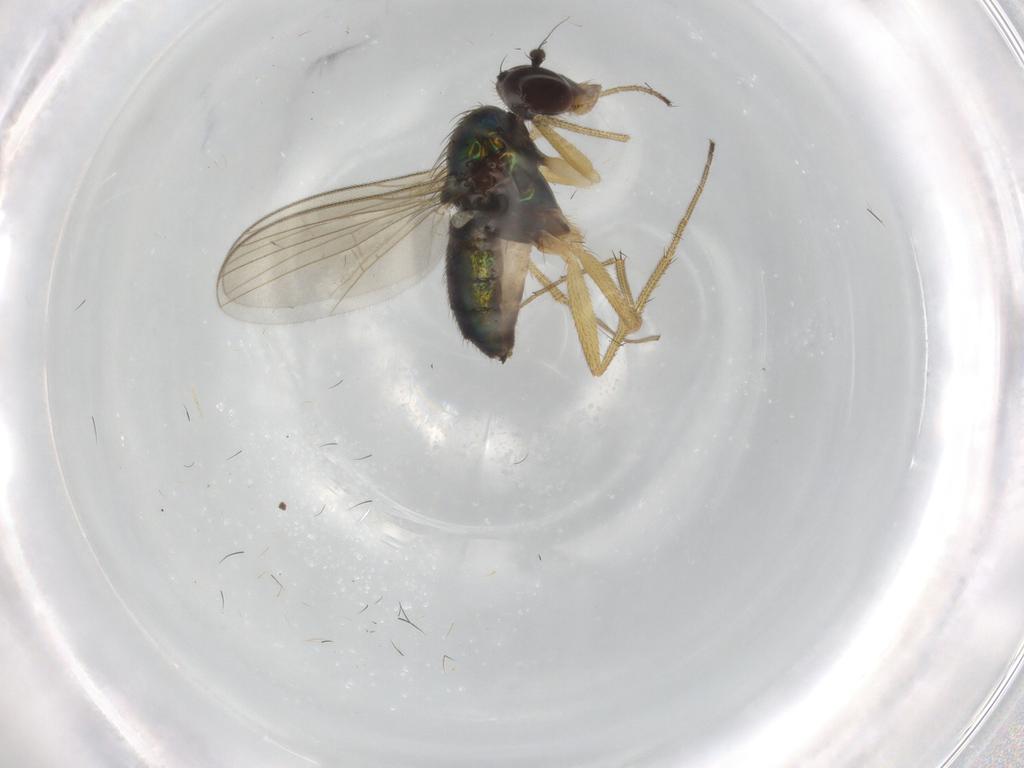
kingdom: Animalia
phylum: Arthropoda
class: Insecta
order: Diptera
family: Dolichopodidae
